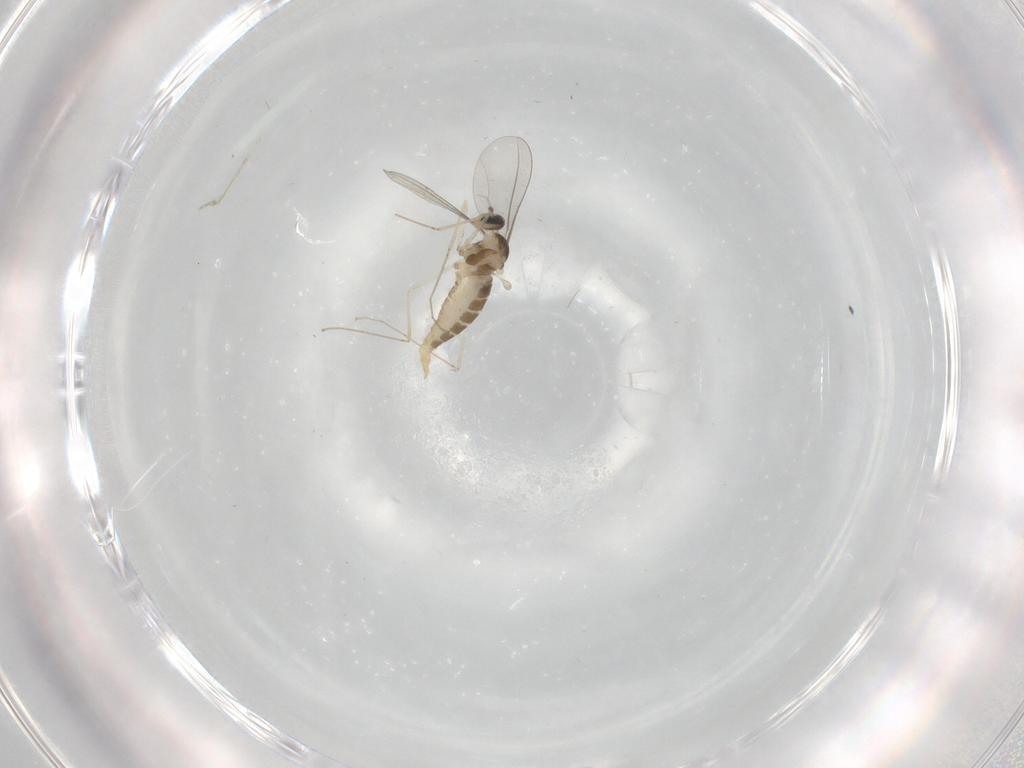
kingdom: Animalia
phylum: Arthropoda
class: Insecta
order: Diptera
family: Cecidomyiidae
